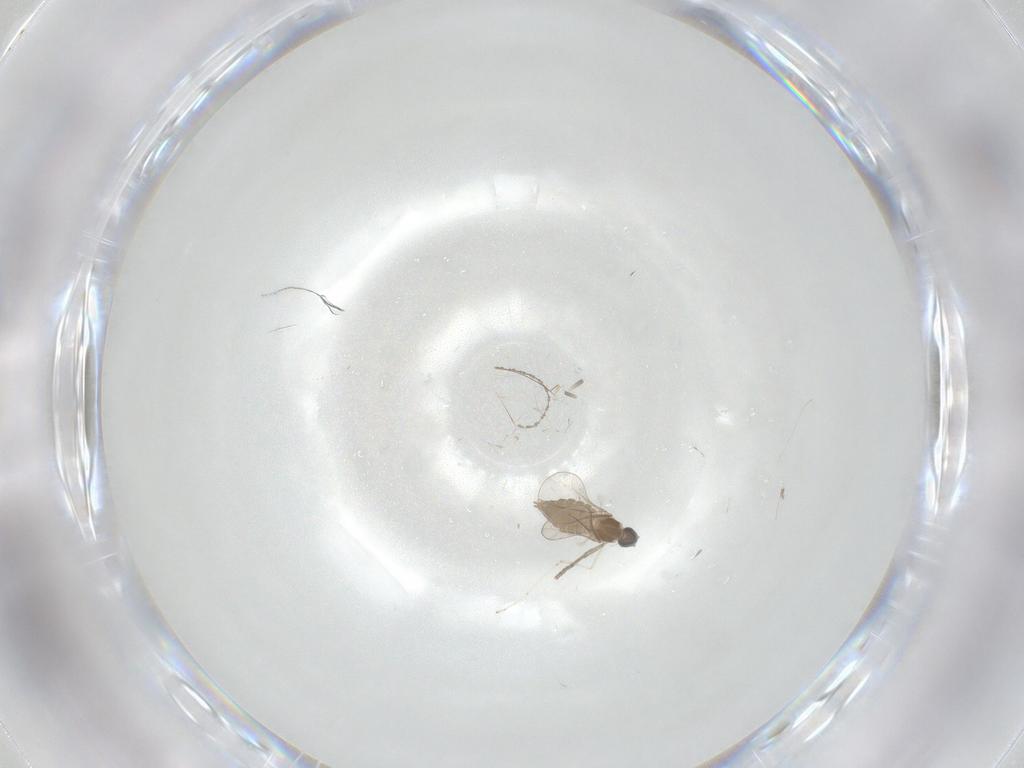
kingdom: Animalia
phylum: Arthropoda
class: Insecta
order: Diptera
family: Cecidomyiidae
